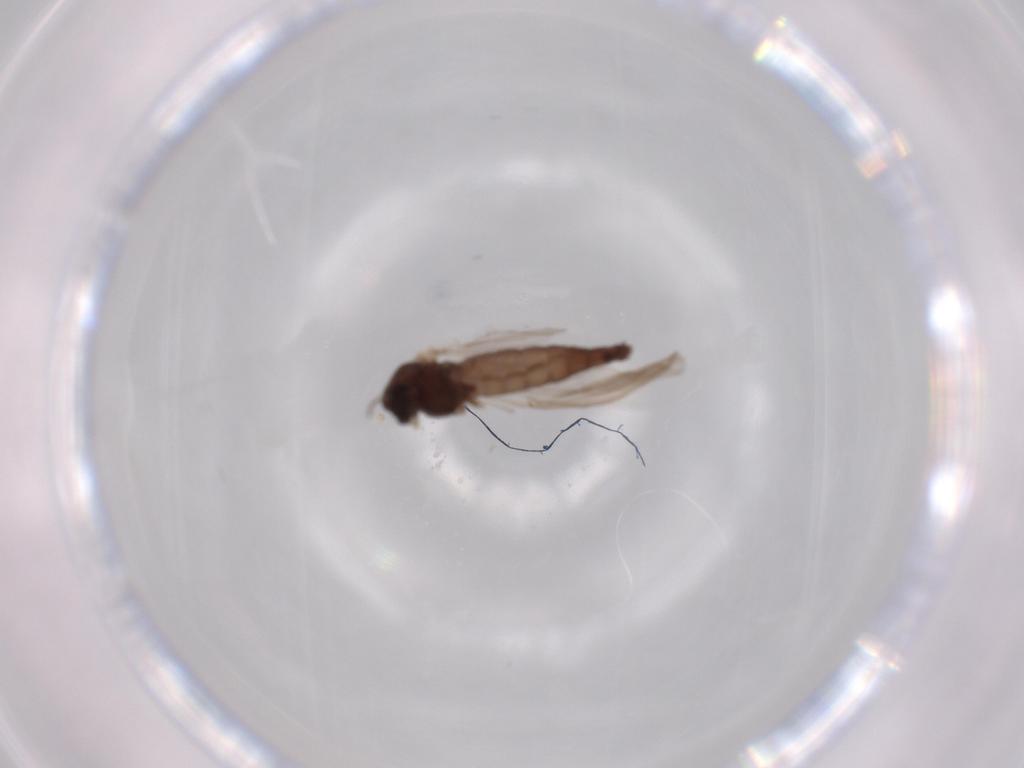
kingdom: Animalia
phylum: Arthropoda
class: Insecta
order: Diptera
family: Chironomidae
